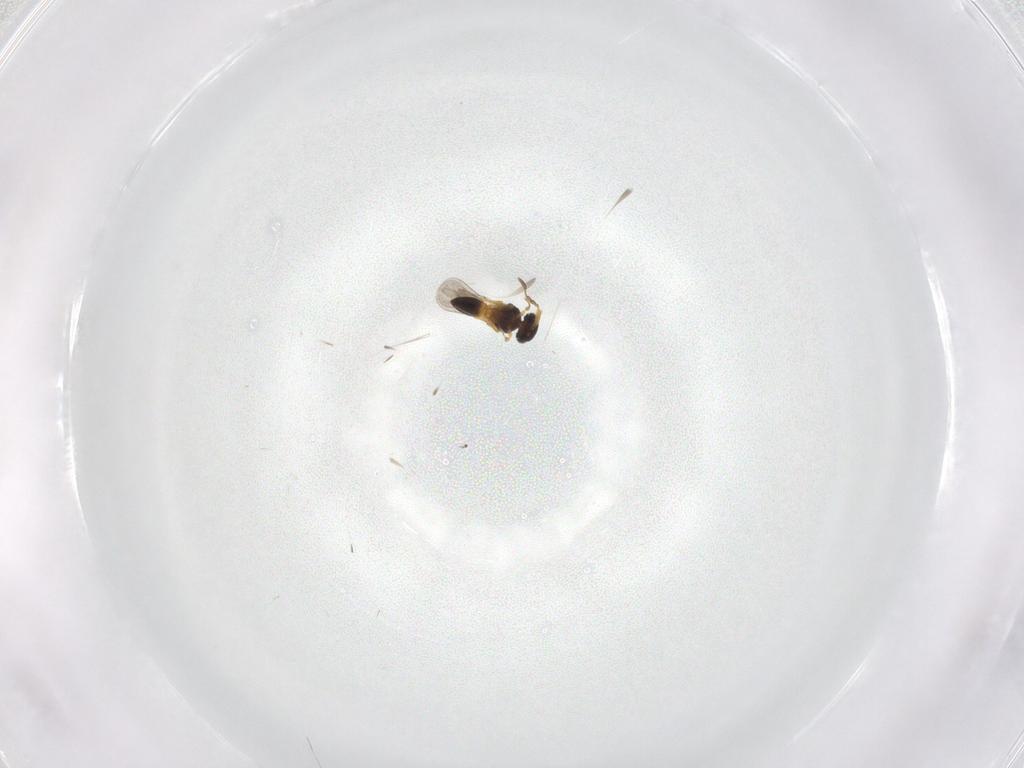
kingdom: Animalia
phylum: Arthropoda
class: Insecta
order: Hymenoptera
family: Platygastridae
